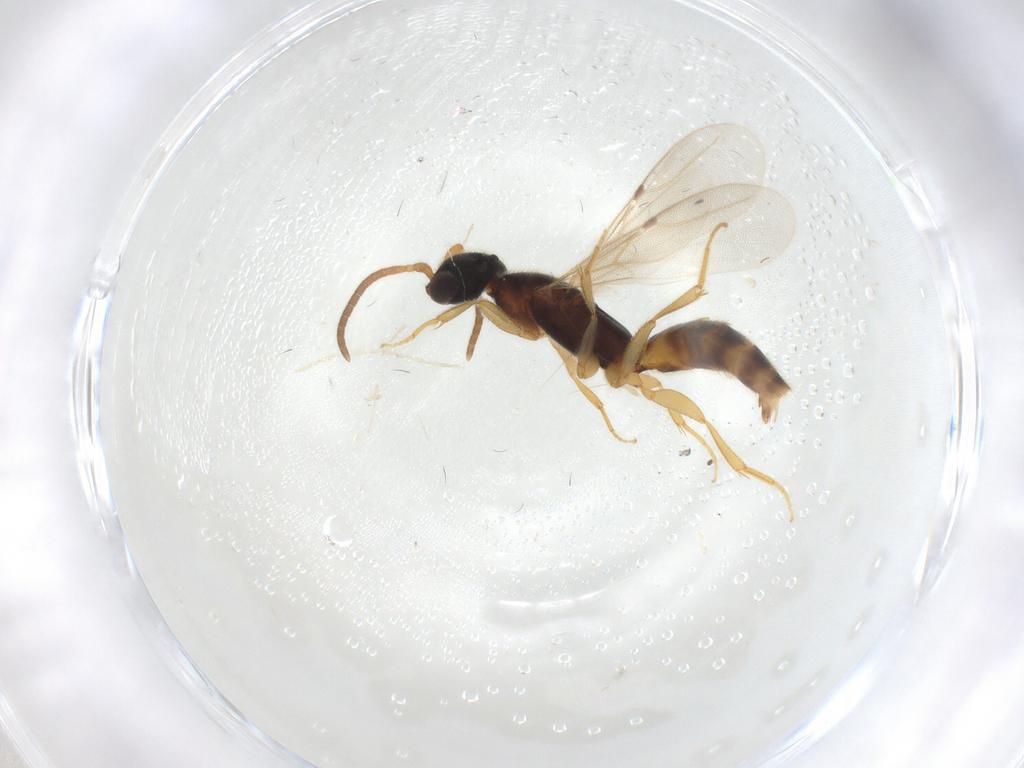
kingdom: Animalia
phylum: Arthropoda
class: Insecta
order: Hymenoptera
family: Bethylidae
